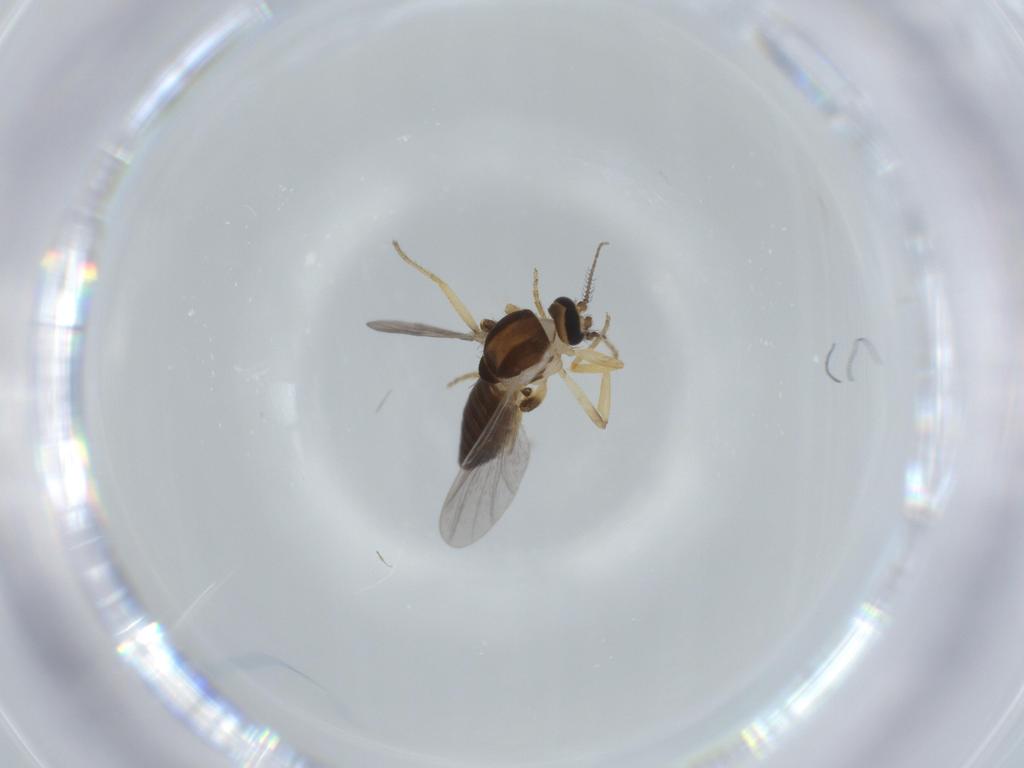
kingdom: Animalia
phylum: Arthropoda
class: Insecta
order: Diptera
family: Ceratopogonidae
